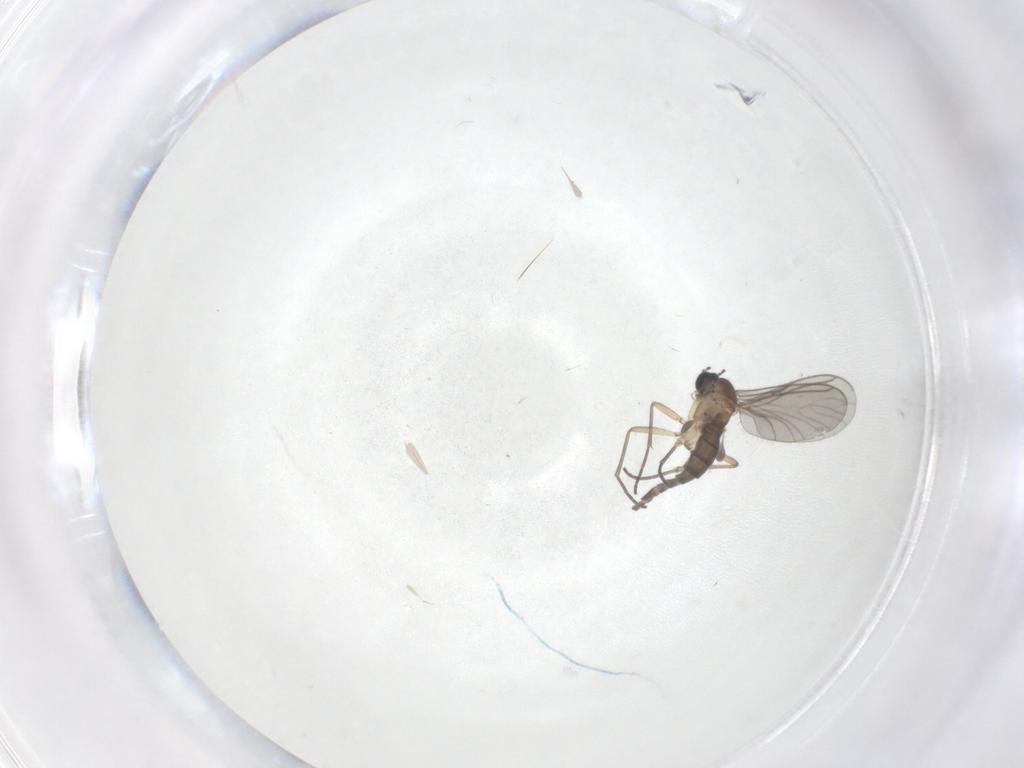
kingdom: Animalia
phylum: Arthropoda
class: Insecta
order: Diptera
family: Sciaridae
